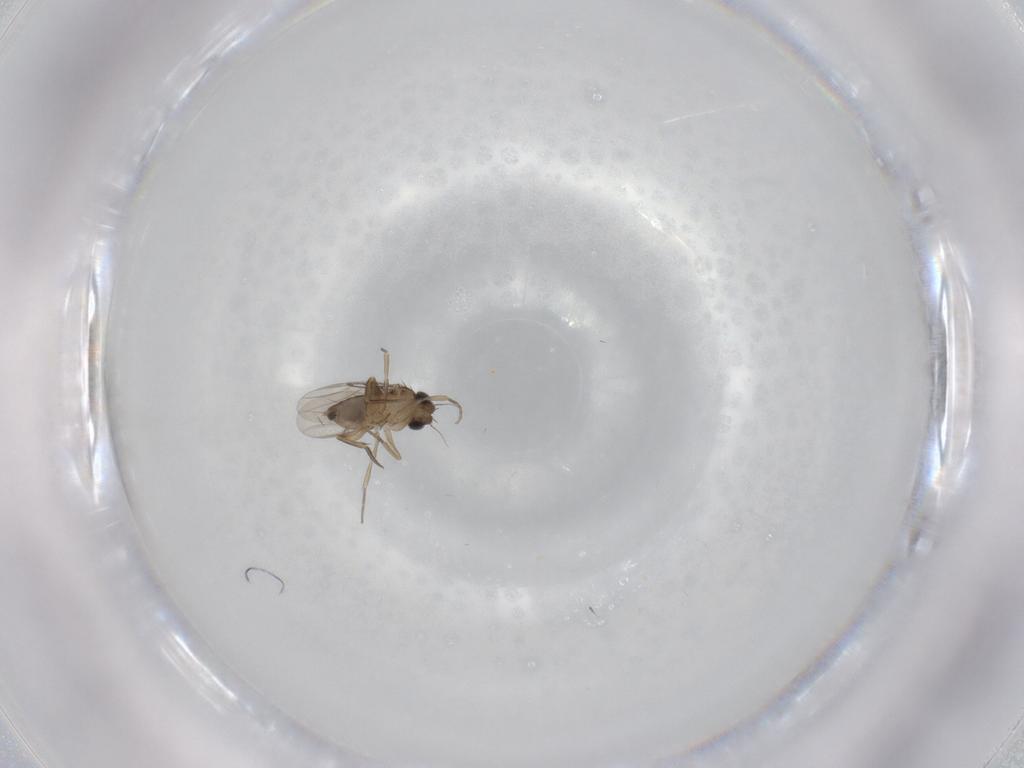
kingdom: Animalia
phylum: Arthropoda
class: Insecta
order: Diptera
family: Phoridae
